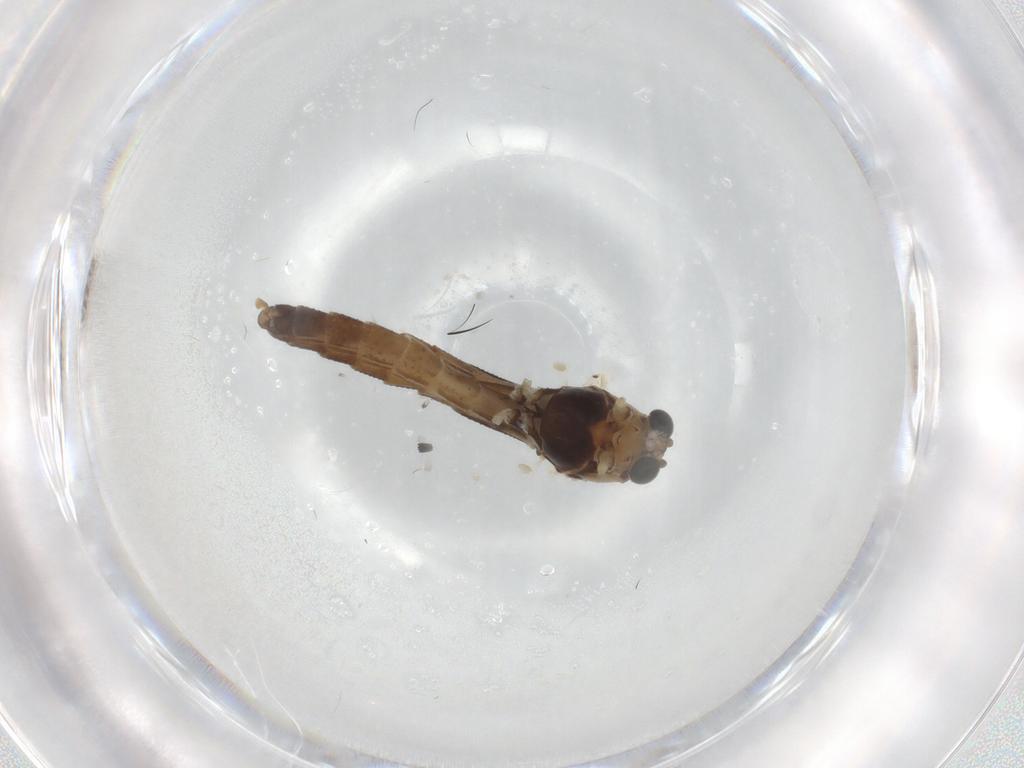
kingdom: Animalia
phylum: Arthropoda
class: Insecta
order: Diptera
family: Chironomidae
